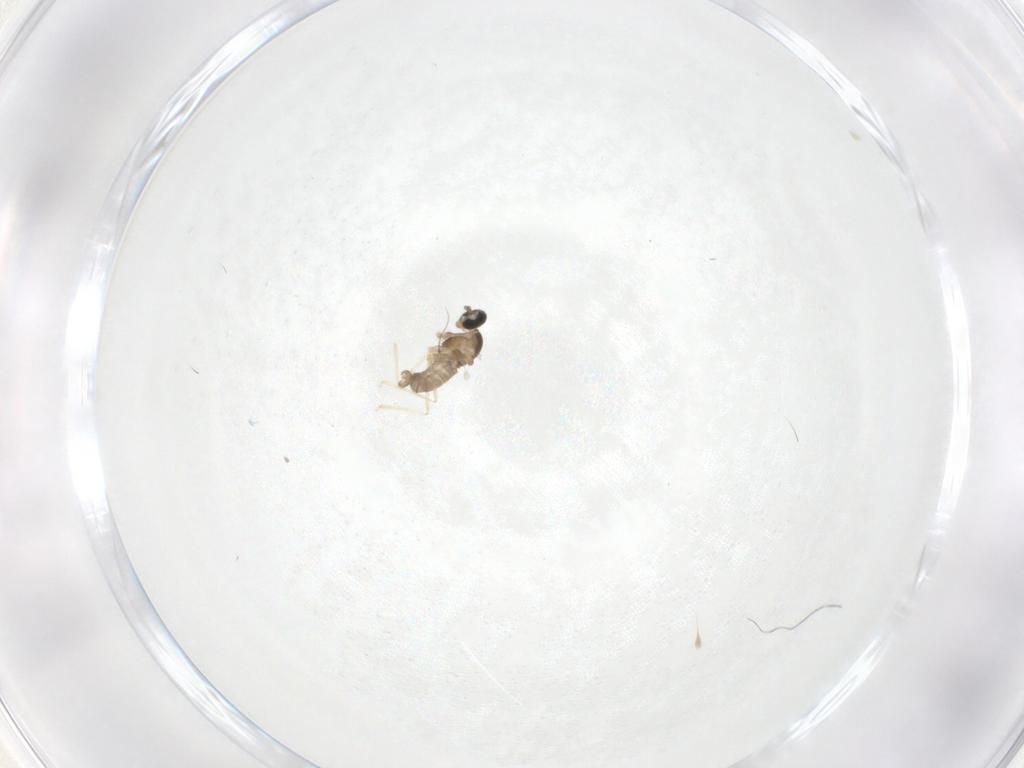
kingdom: Animalia
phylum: Arthropoda
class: Insecta
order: Diptera
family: Cecidomyiidae
